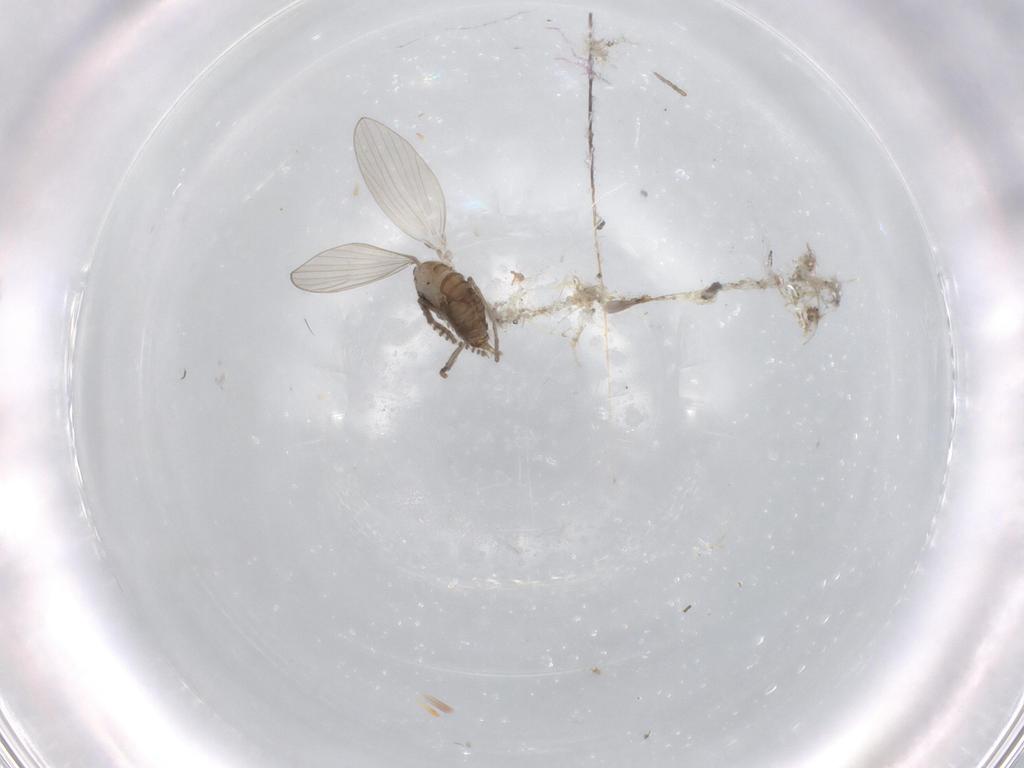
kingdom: Animalia
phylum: Arthropoda
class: Insecta
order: Diptera
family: Psychodidae
